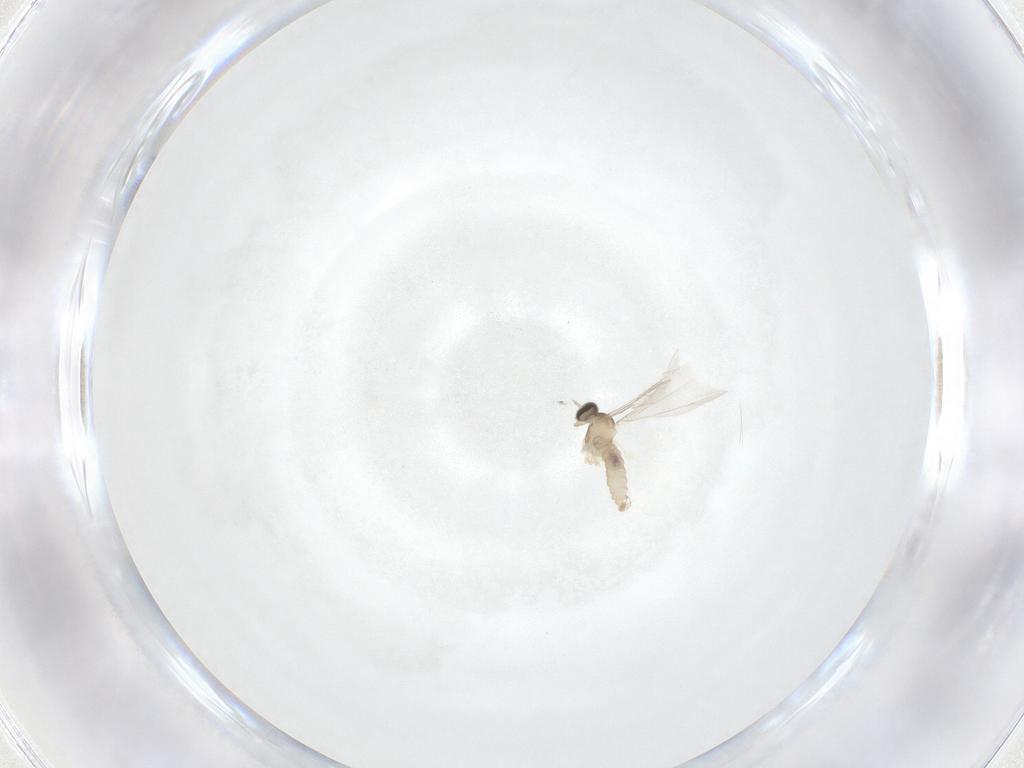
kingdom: Animalia
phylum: Arthropoda
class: Insecta
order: Diptera
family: Cecidomyiidae
